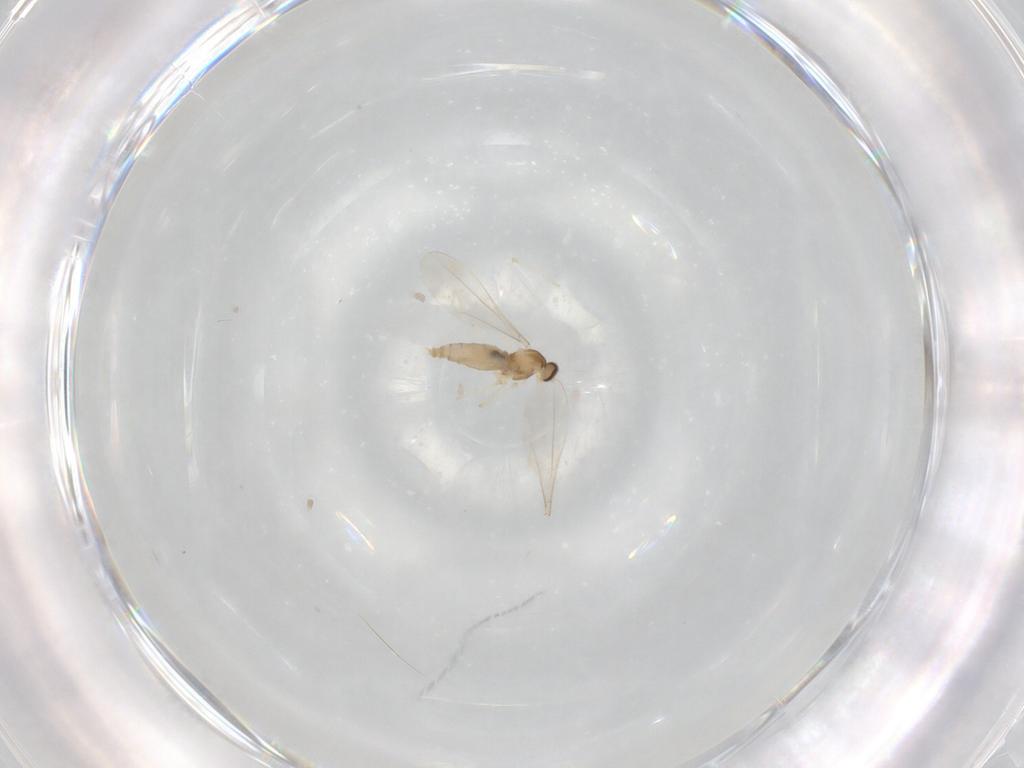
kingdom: Animalia
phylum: Arthropoda
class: Insecta
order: Diptera
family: Cecidomyiidae
